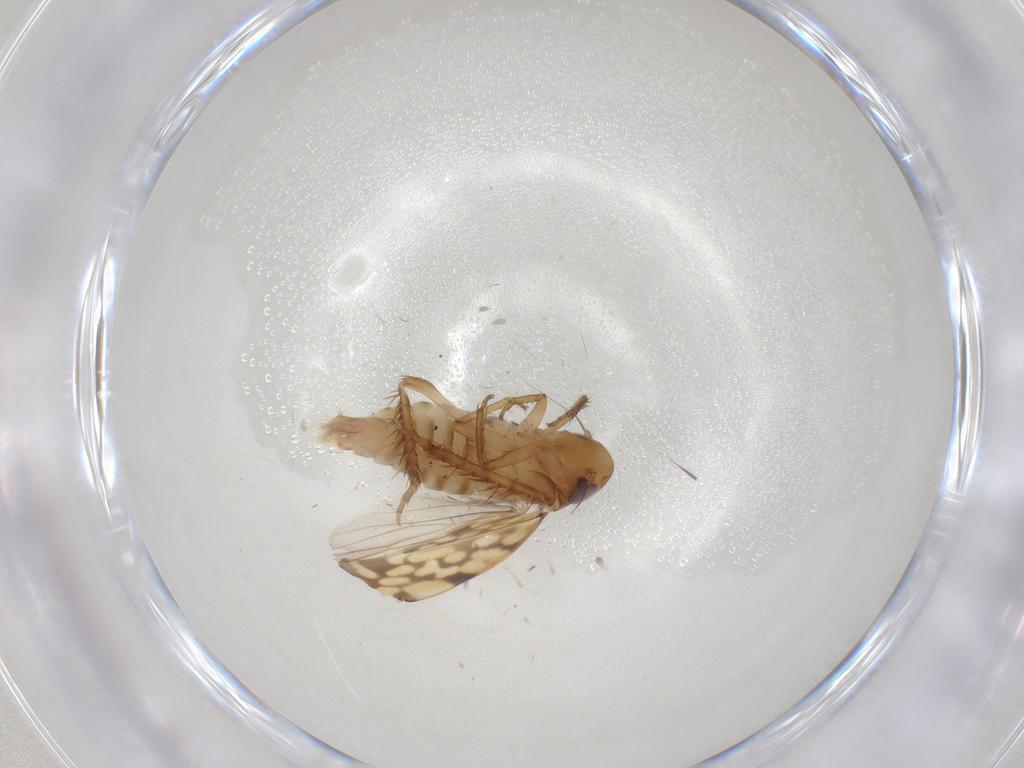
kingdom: Animalia
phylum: Arthropoda
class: Insecta
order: Hemiptera
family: Cicadellidae
